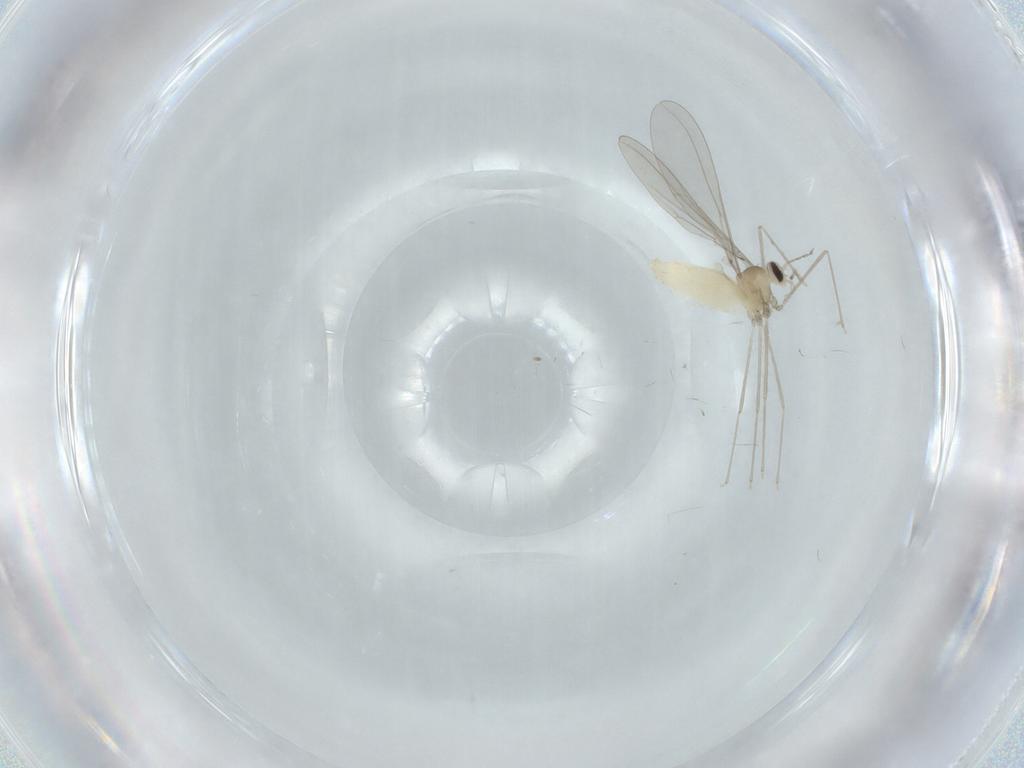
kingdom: Animalia
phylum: Arthropoda
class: Insecta
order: Diptera
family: Cecidomyiidae
